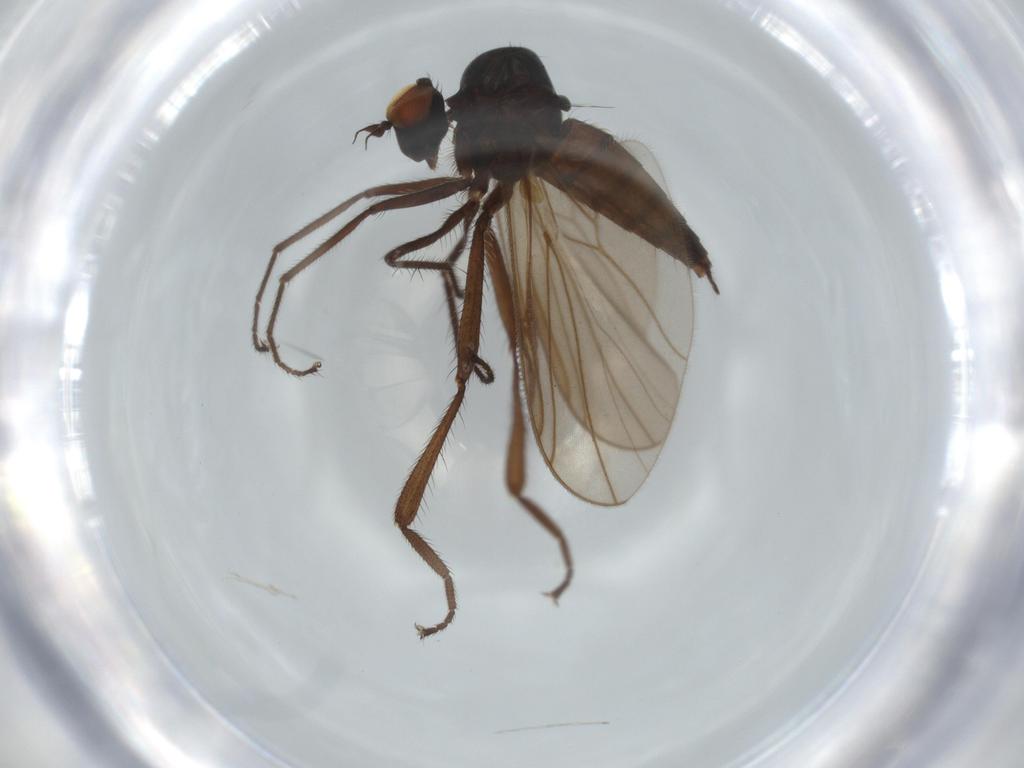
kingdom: Animalia
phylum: Arthropoda
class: Insecta
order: Diptera
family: Hybotidae
